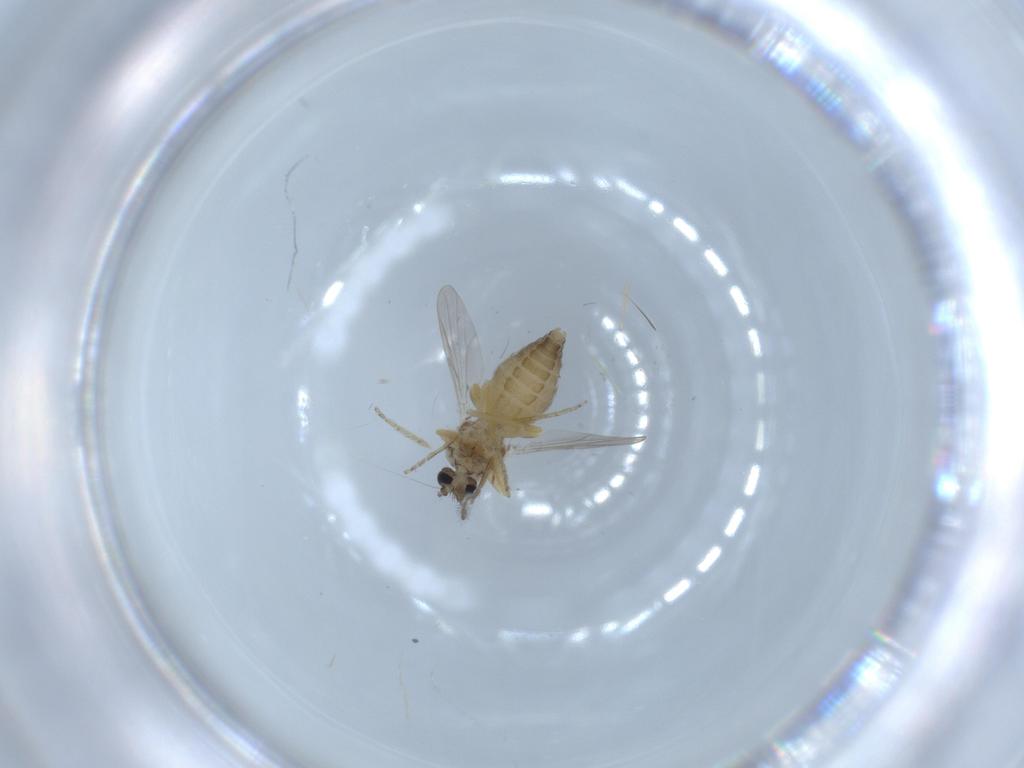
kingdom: Animalia
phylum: Arthropoda
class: Insecta
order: Diptera
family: Ceratopogonidae
